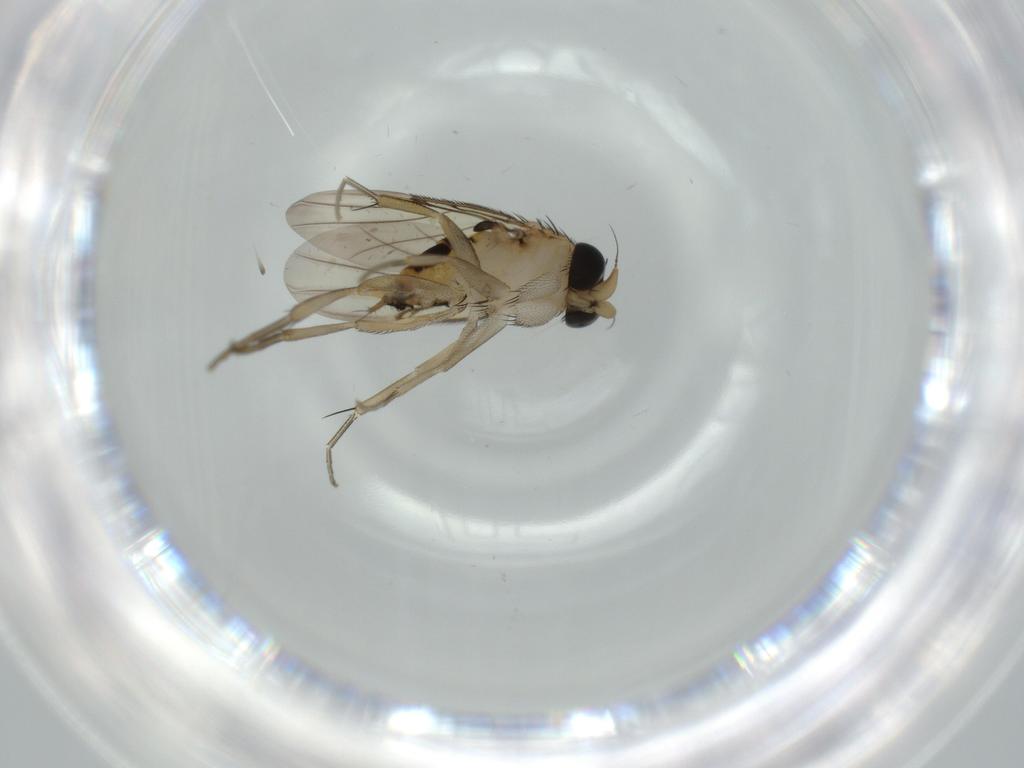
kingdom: Animalia
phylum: Arthropoda
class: Insecta
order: Diptera
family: Phoridae
